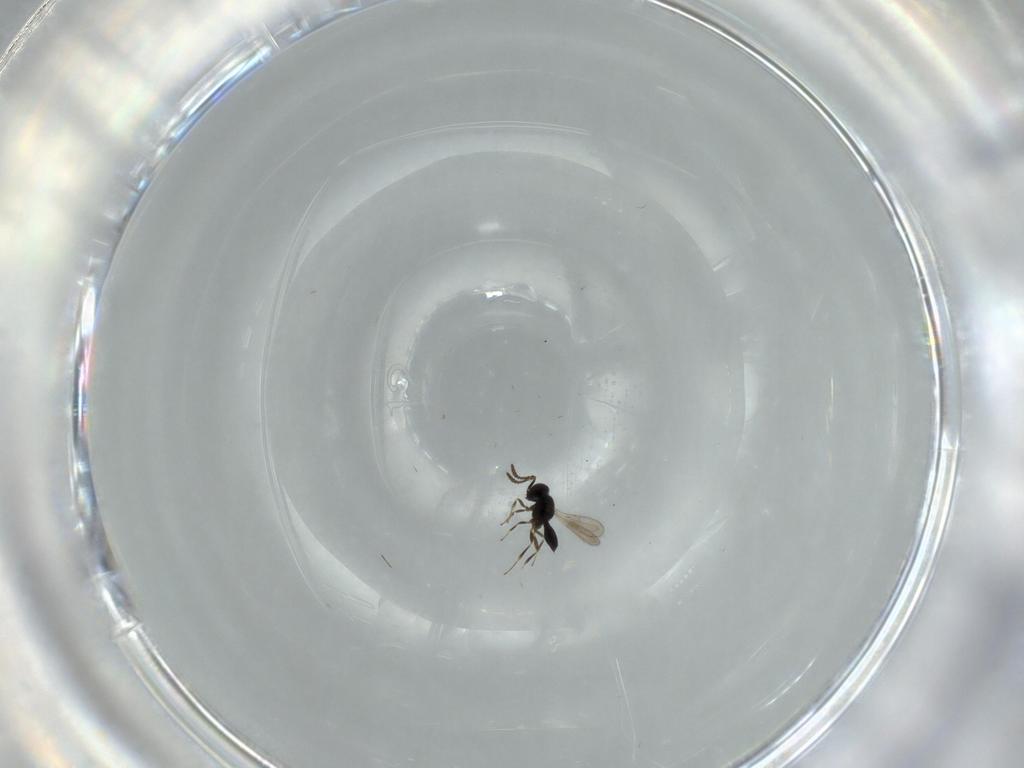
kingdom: Animalia
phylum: Arthropoda
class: Insecta
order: Hymenoptera
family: Scelionidae
